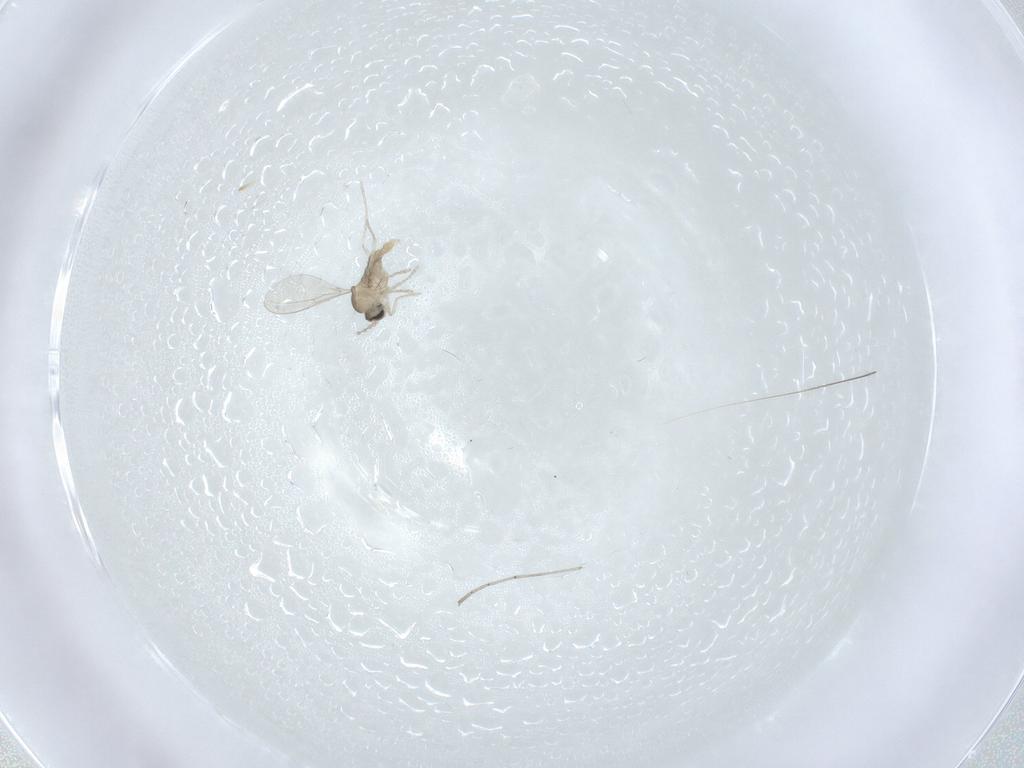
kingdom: Animalia
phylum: Arthropoda
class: Insecta
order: Diptera
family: Cecidomyiidae
